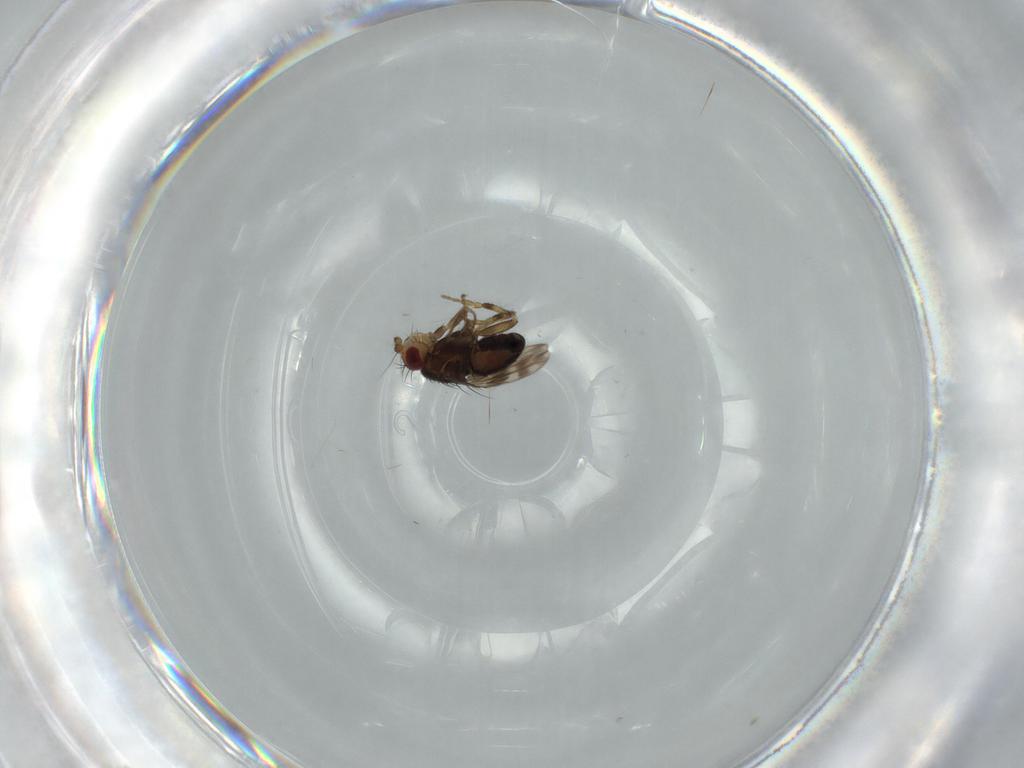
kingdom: Animalia
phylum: Arthropoda
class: Insecta
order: Diptera
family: Sphaeroceridae
